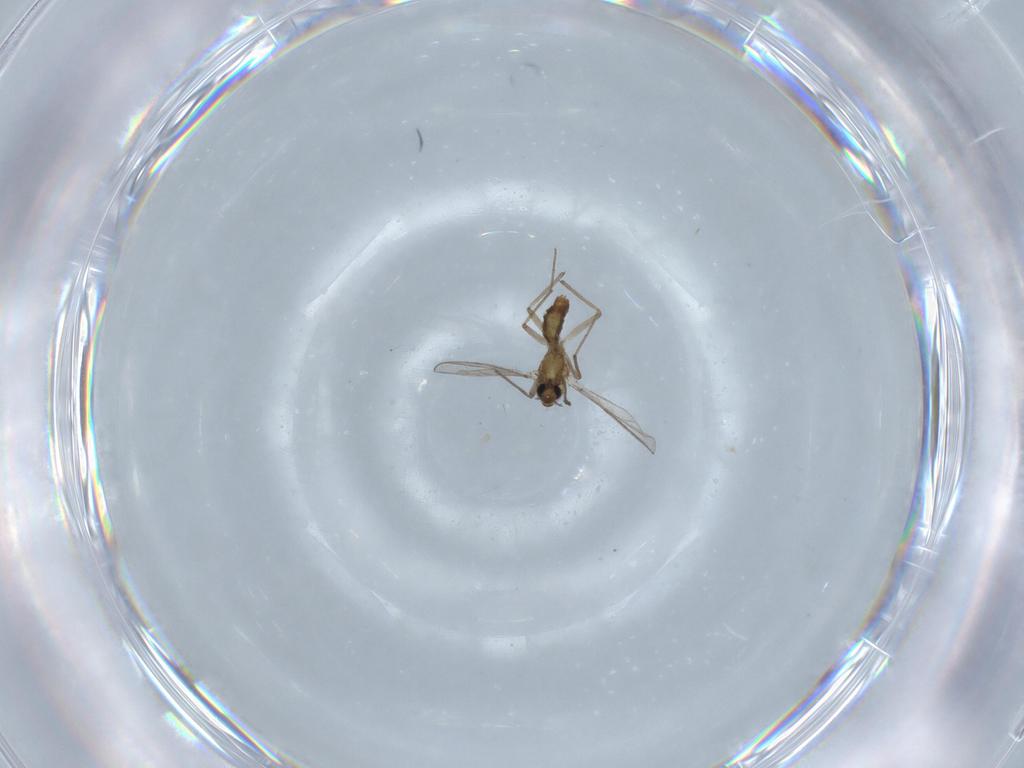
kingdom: Animalia
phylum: Arthropoda
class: Insecta
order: Diptera
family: Chironomidae
